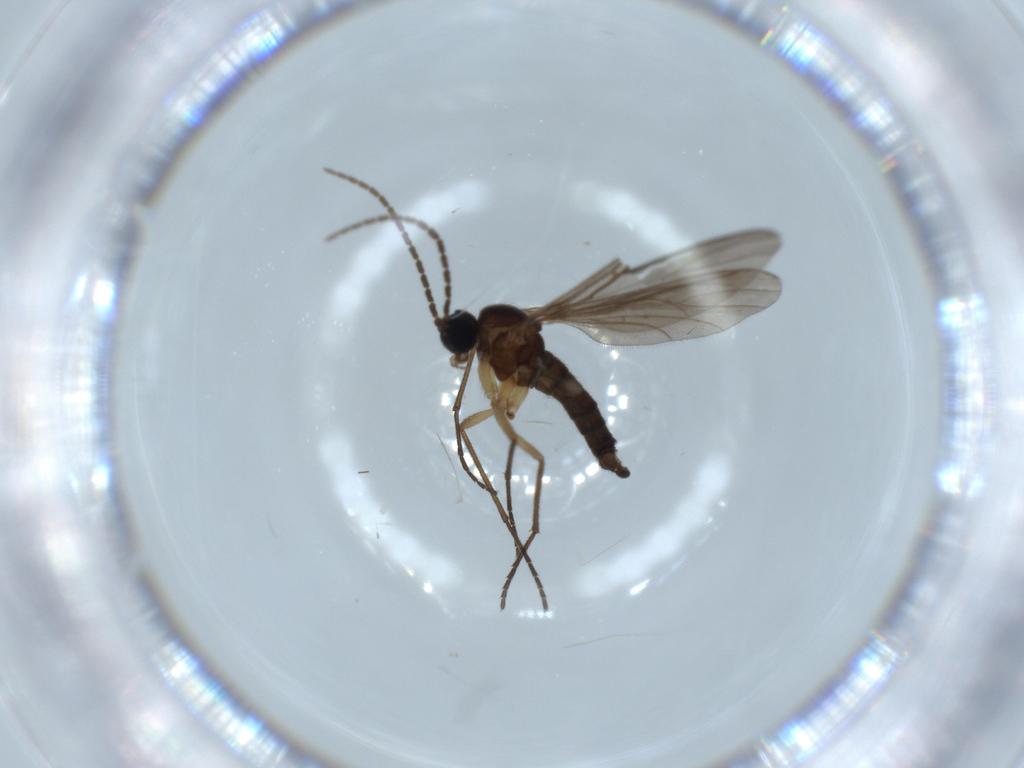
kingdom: Animalia
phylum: Arthropoda
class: Insecta
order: Diptera
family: Sciaridae
